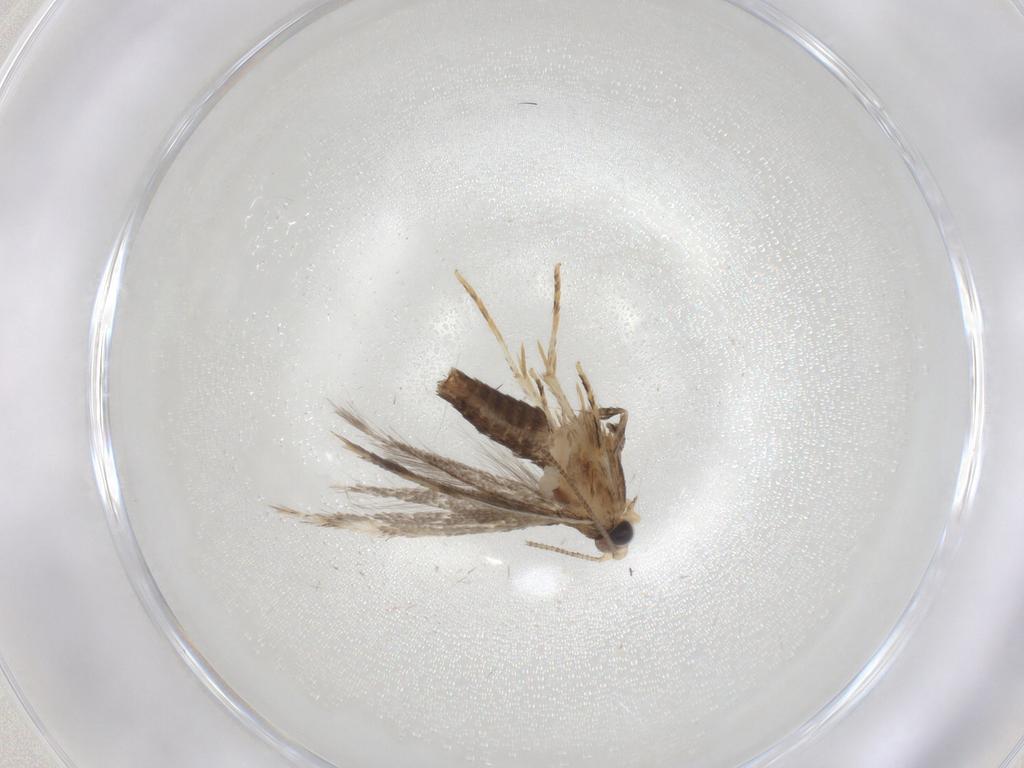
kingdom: Animalia
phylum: Arthropoda
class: Insecta
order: Lepidoptera
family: Tineidae
